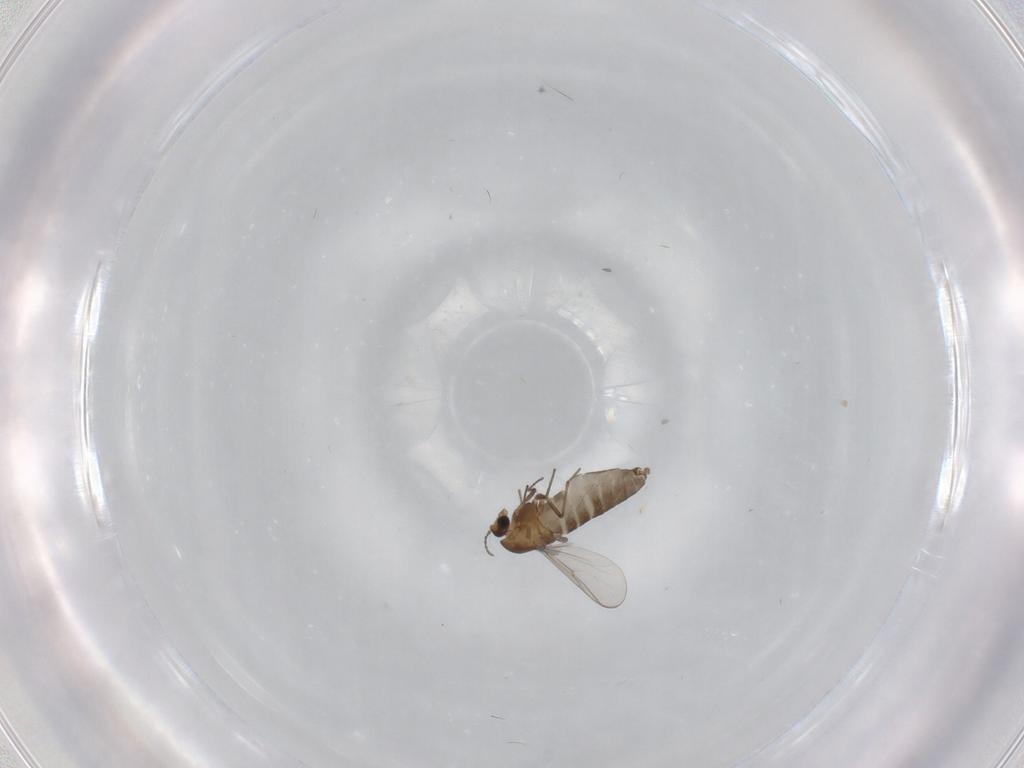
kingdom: Animalia
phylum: Arthropoda
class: Insecta
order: Diptera
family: Chironomidae
